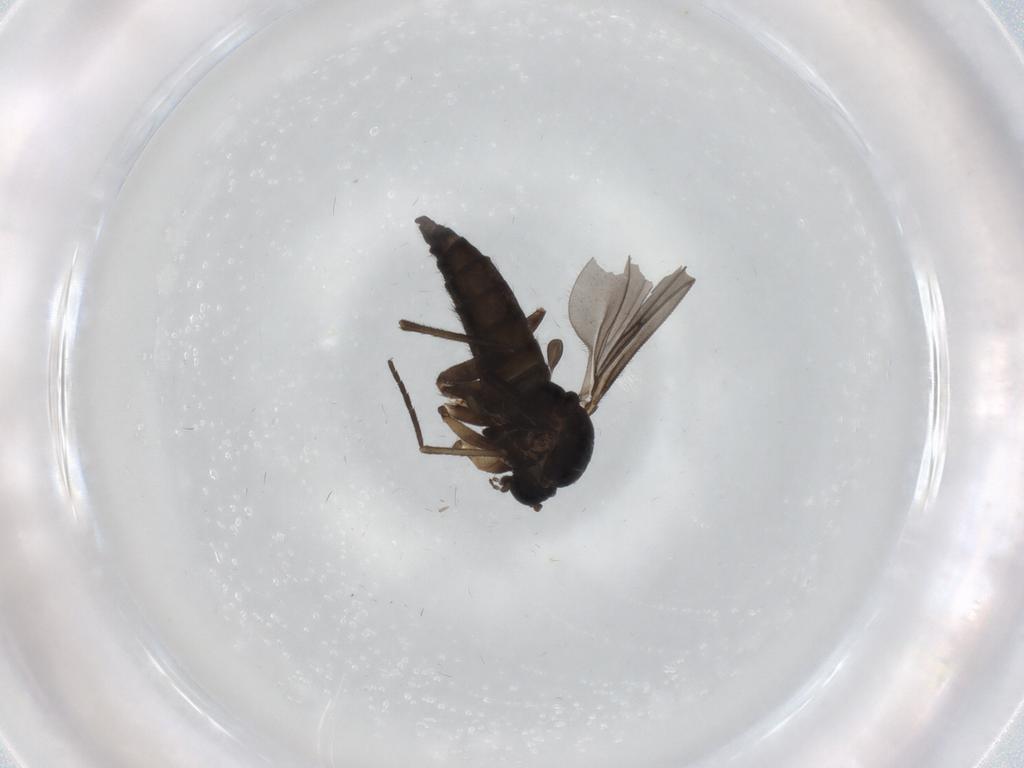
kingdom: Animalia
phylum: Arthropoda
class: Insecta
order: Diptera
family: Sciaridae
